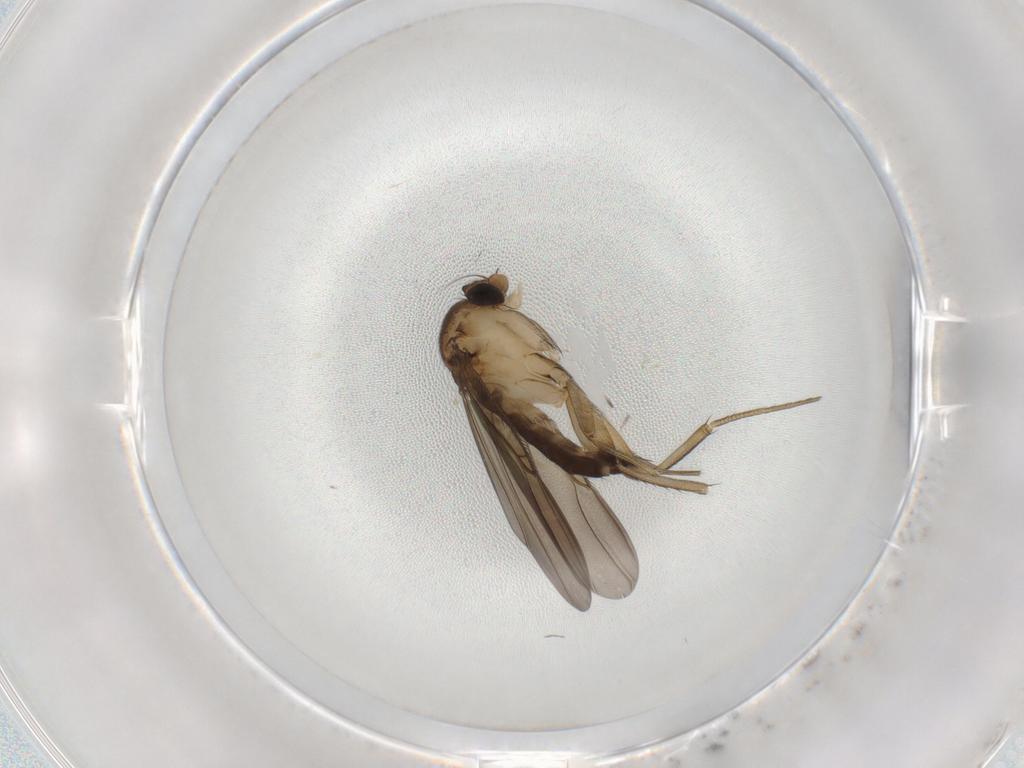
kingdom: Animalia
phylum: Arthropoda
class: Insecta
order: Diptera
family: Phoridae
